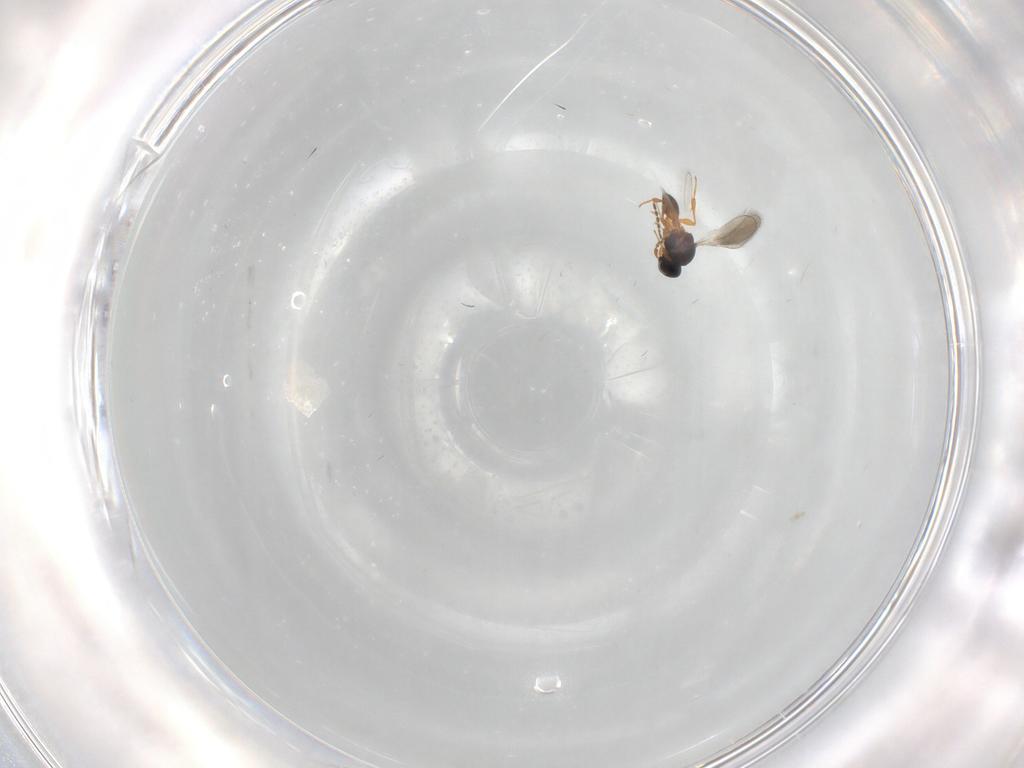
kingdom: Animalia
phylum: Arthropoda
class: Insecta
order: Hymenoptera
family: Platygastridae
